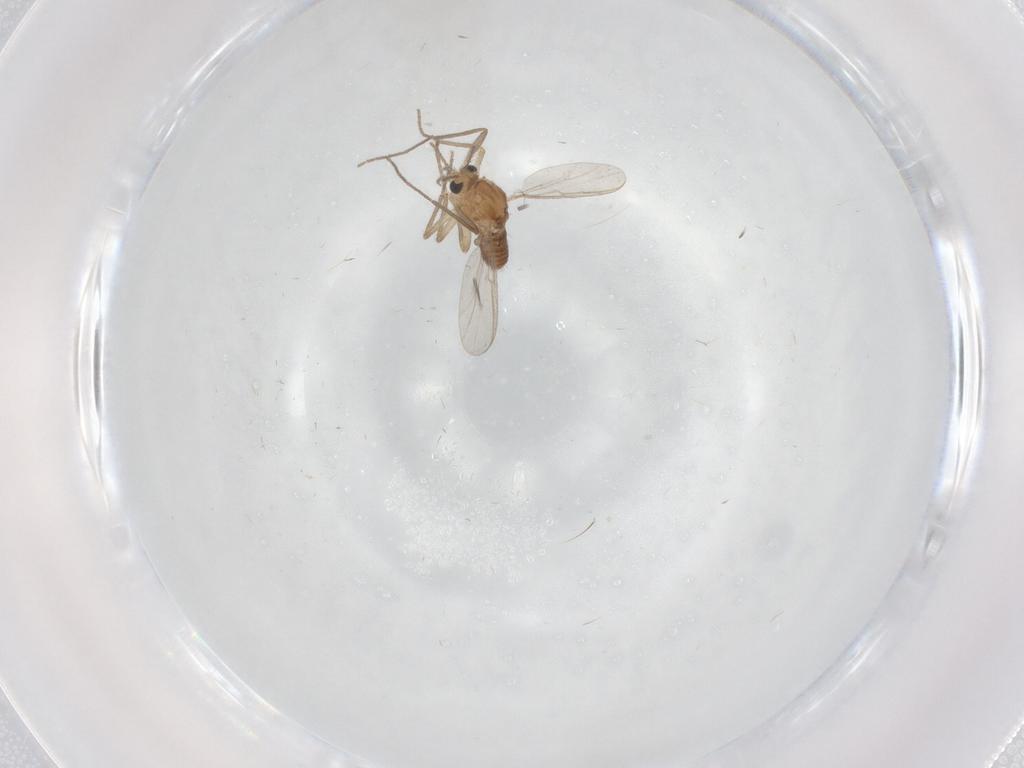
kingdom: Animalia
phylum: Arthropoda
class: Insecta
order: Diptera
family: Chironomidae
